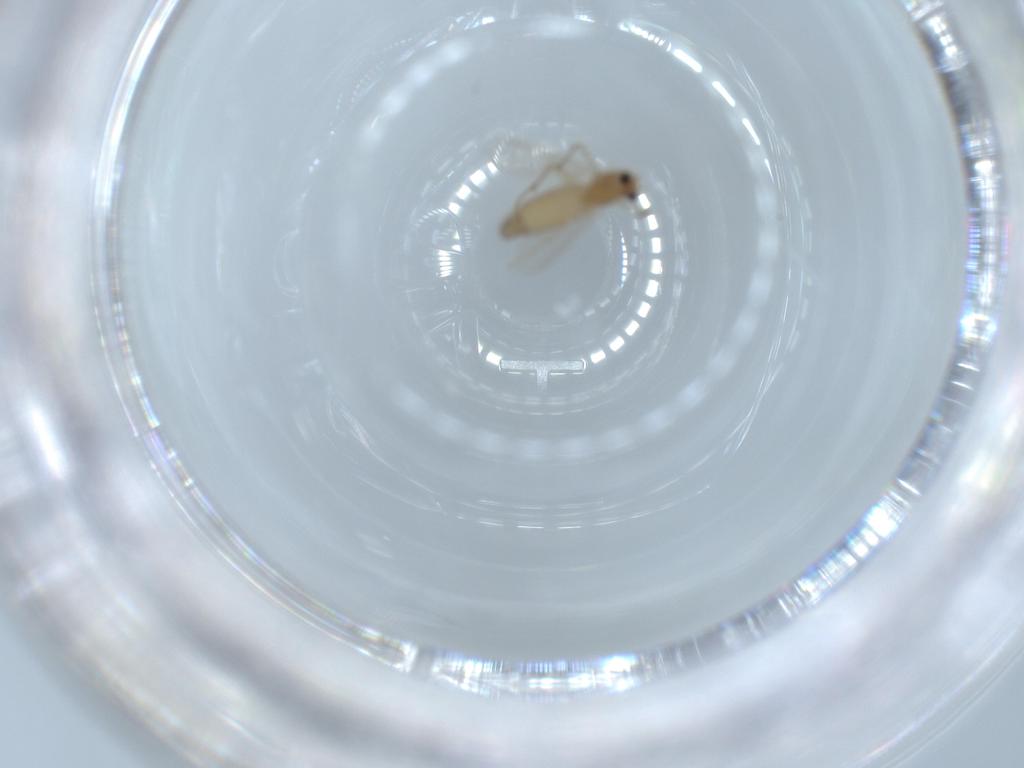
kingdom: Animalia
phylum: Arthropoda
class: Insecta
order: Diptera
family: Chironomidae
